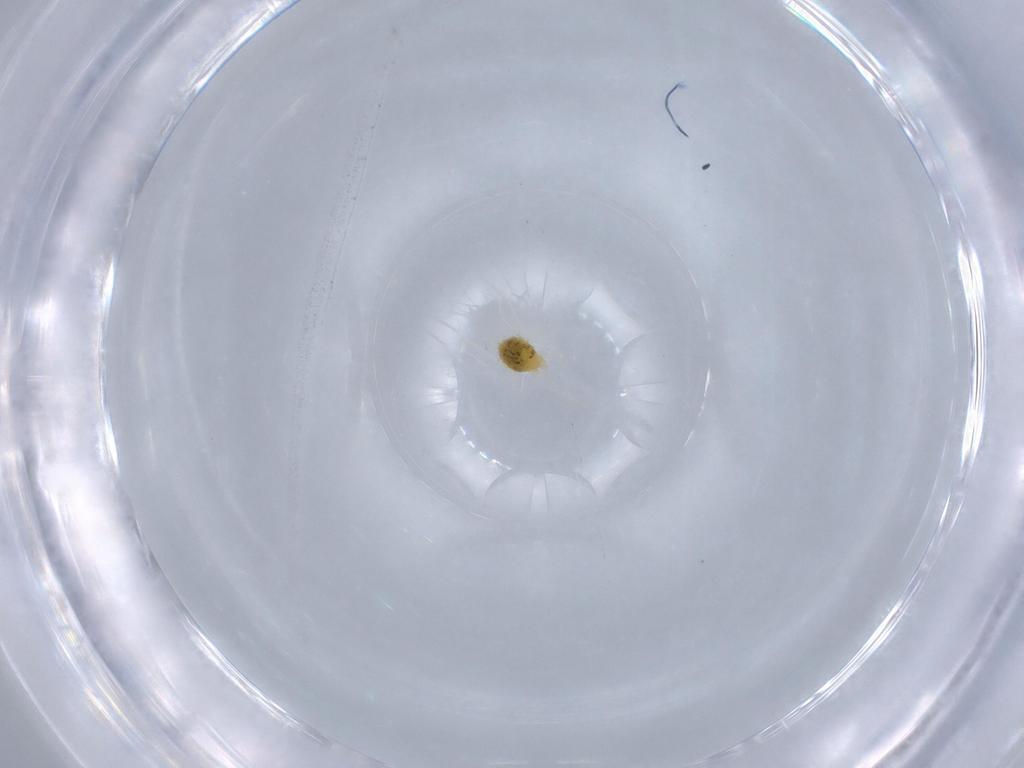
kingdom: Animalia
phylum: Arthropoda
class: Arachnida
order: Trombidiformes
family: Tetranychidae
